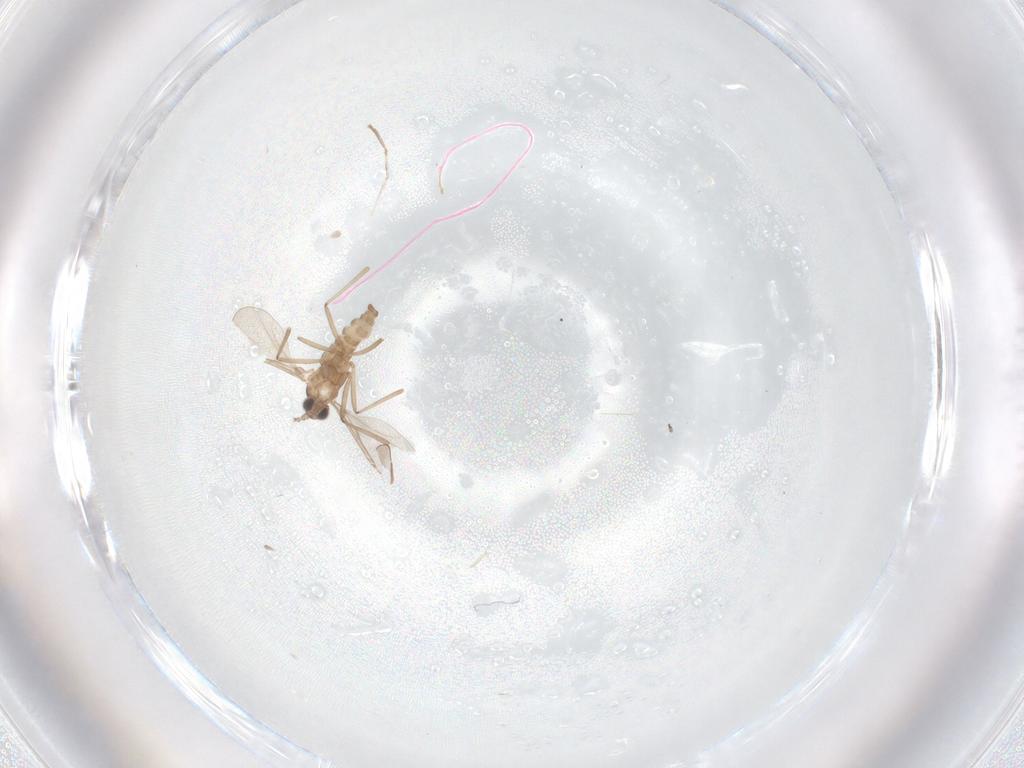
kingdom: Animalia
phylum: Arthropoda
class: Insecta
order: Diptera
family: Cecidomyiidae
